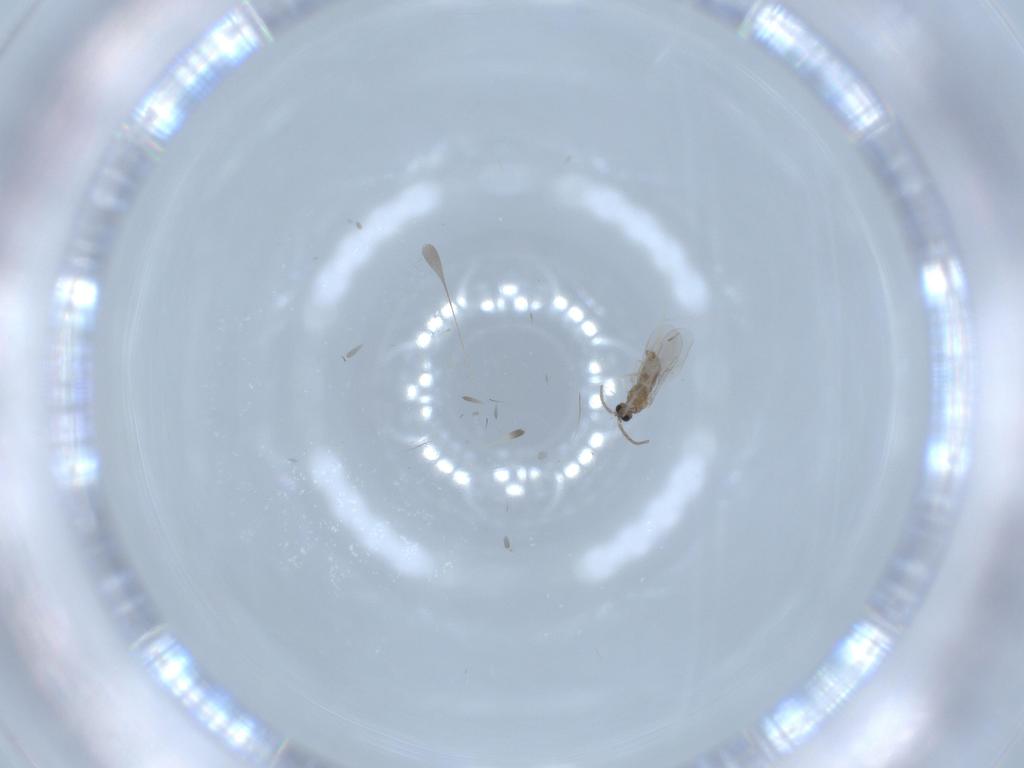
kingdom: Animalia
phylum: Arthropoda
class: Insecta
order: Diptera
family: Cecidomyiidae
